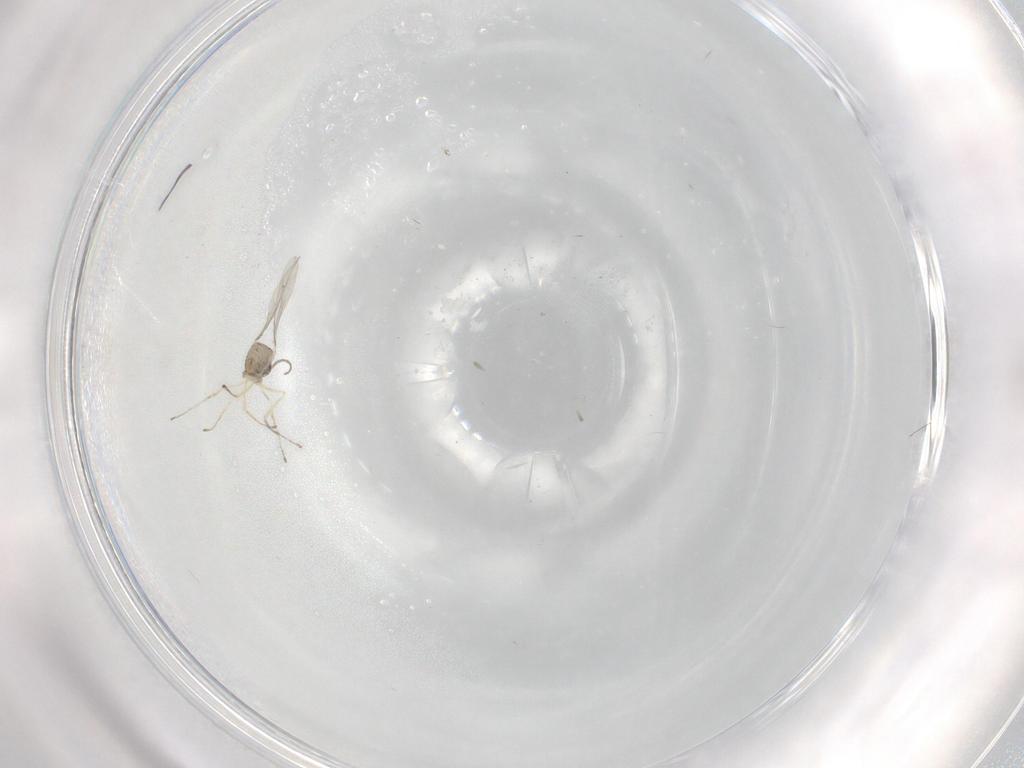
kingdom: Animalia
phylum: Arthropoda
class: Insecta
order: Diptera
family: Cecidomyiidae
